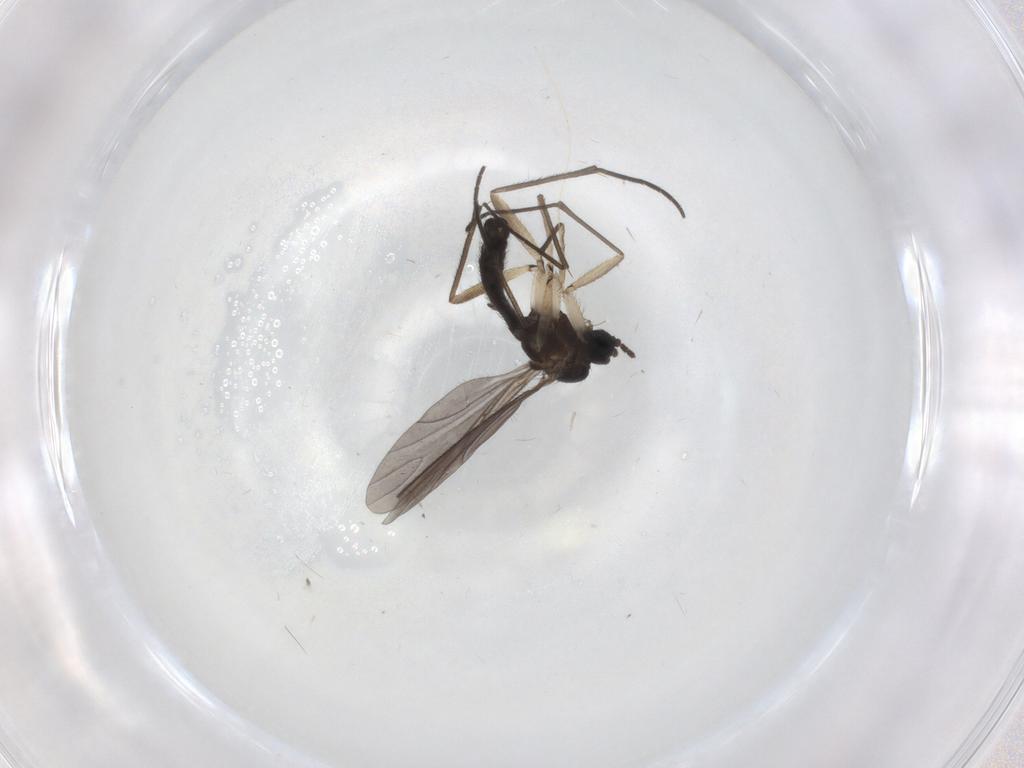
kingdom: Animalia
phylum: Arthropoda
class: Insecta
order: Diptera
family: Sciaridae
